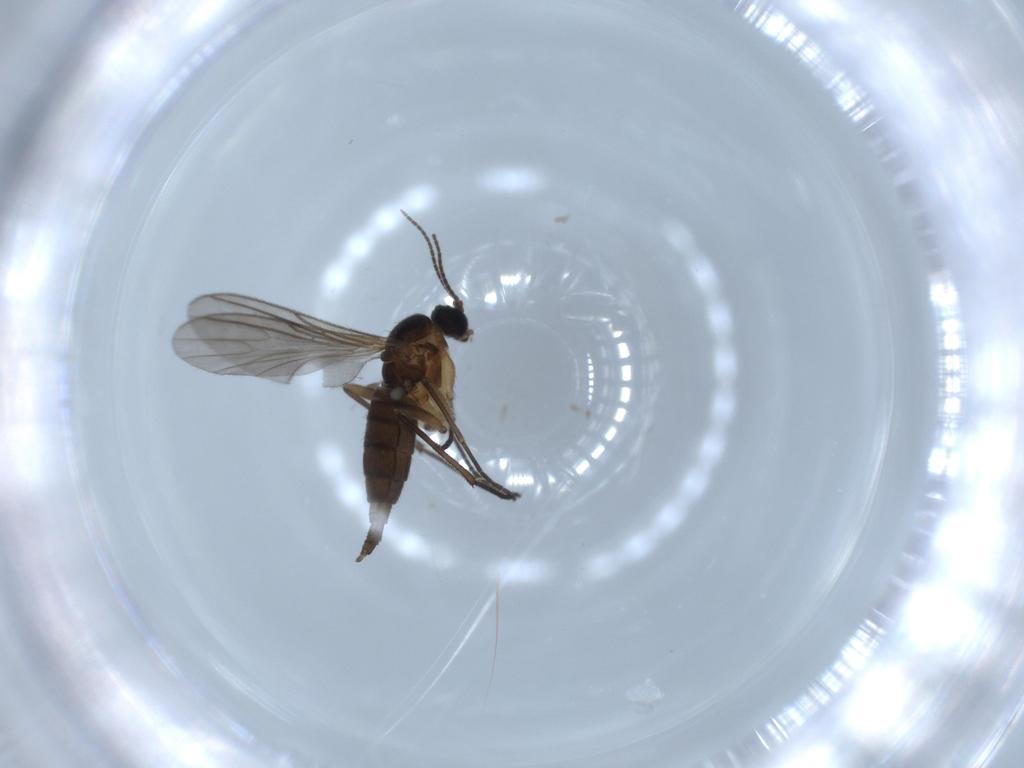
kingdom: Animalia
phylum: Arthropoda
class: Insecta
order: Diptera
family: Sciaridae
